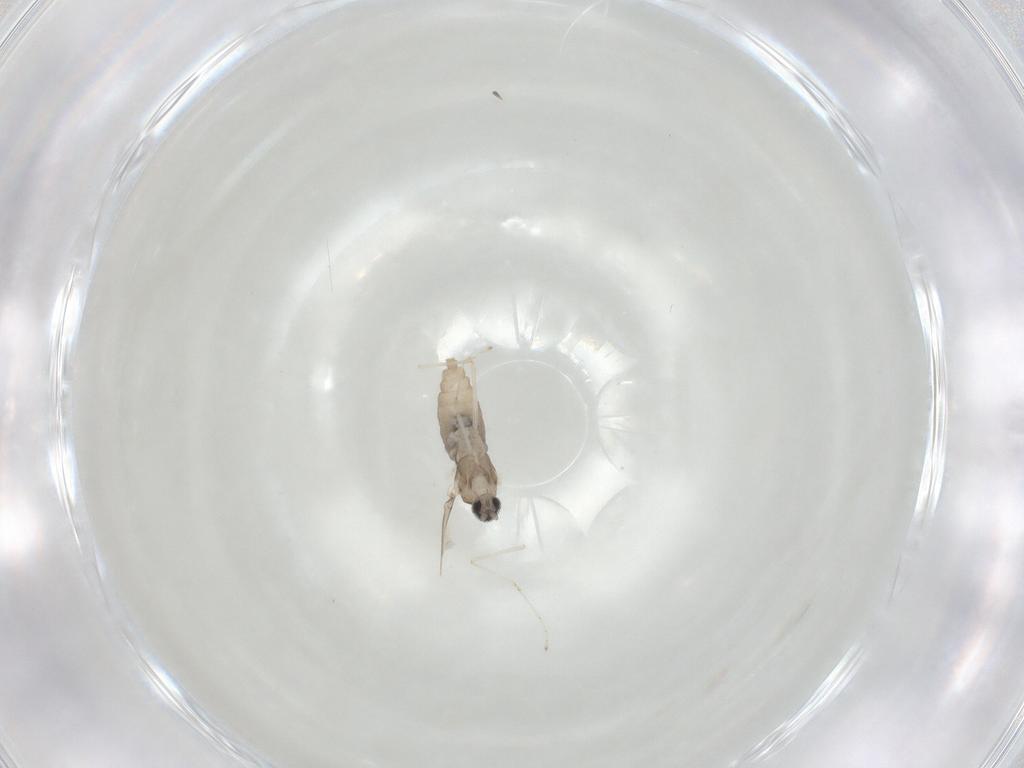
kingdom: Animalia
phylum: Arthropoda
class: Insecta
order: Diptera
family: Cecidomyiidae
